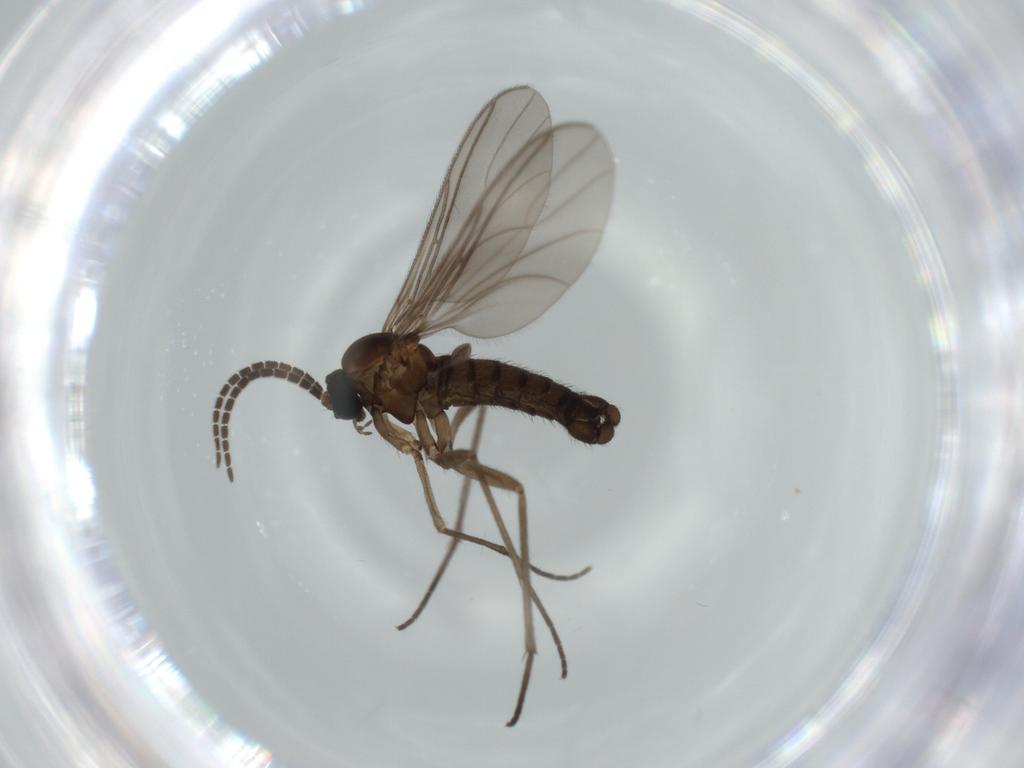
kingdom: Animalia
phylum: Arthropoda
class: Insecta
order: Diptera
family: Sciaridae
